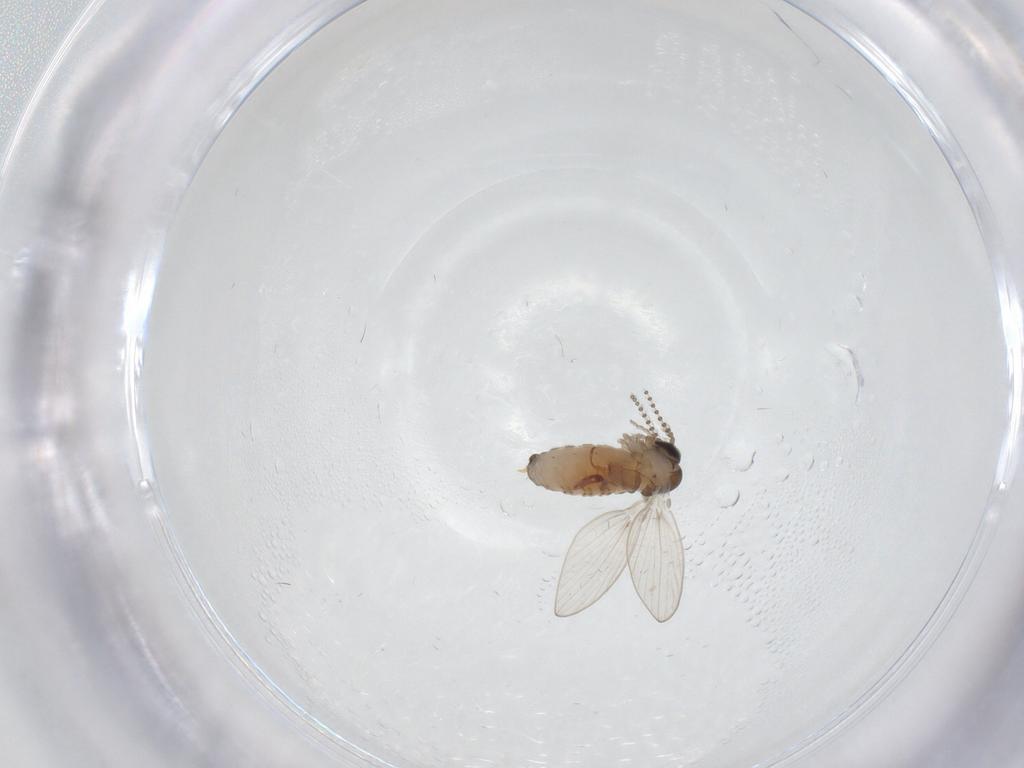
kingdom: Animalia
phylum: Arthropoda
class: Insecta
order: Diptera
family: Psychodidae
